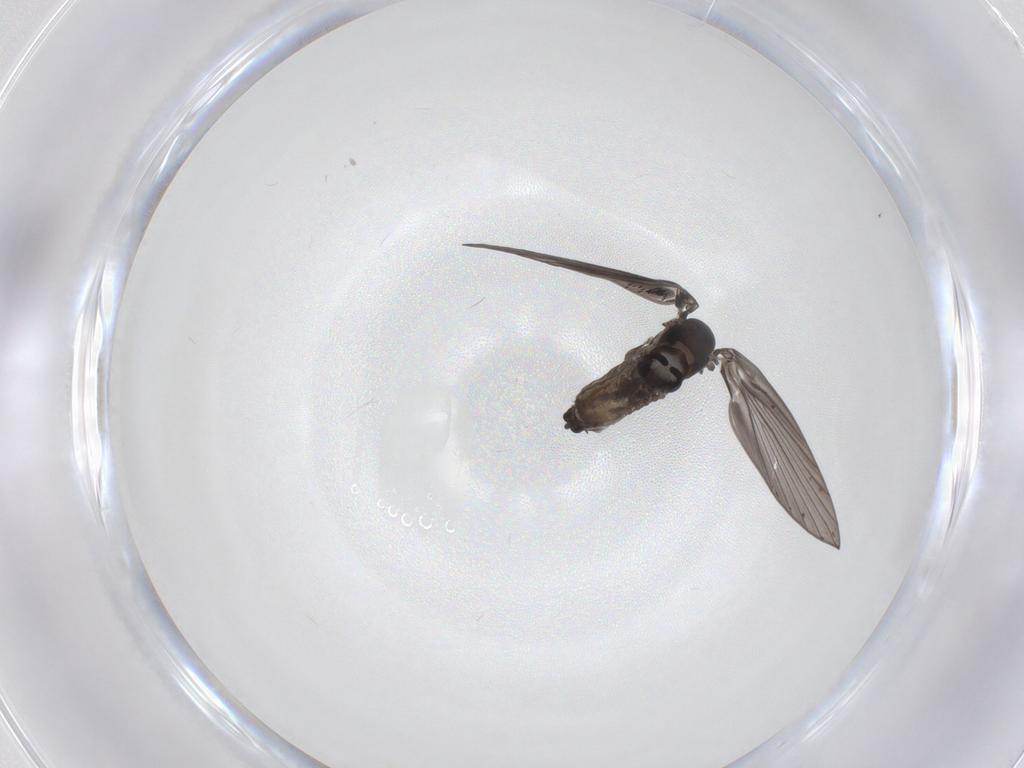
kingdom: Animalia
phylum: Arthropoda
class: Insecta
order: Diptera
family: Psychodidae
